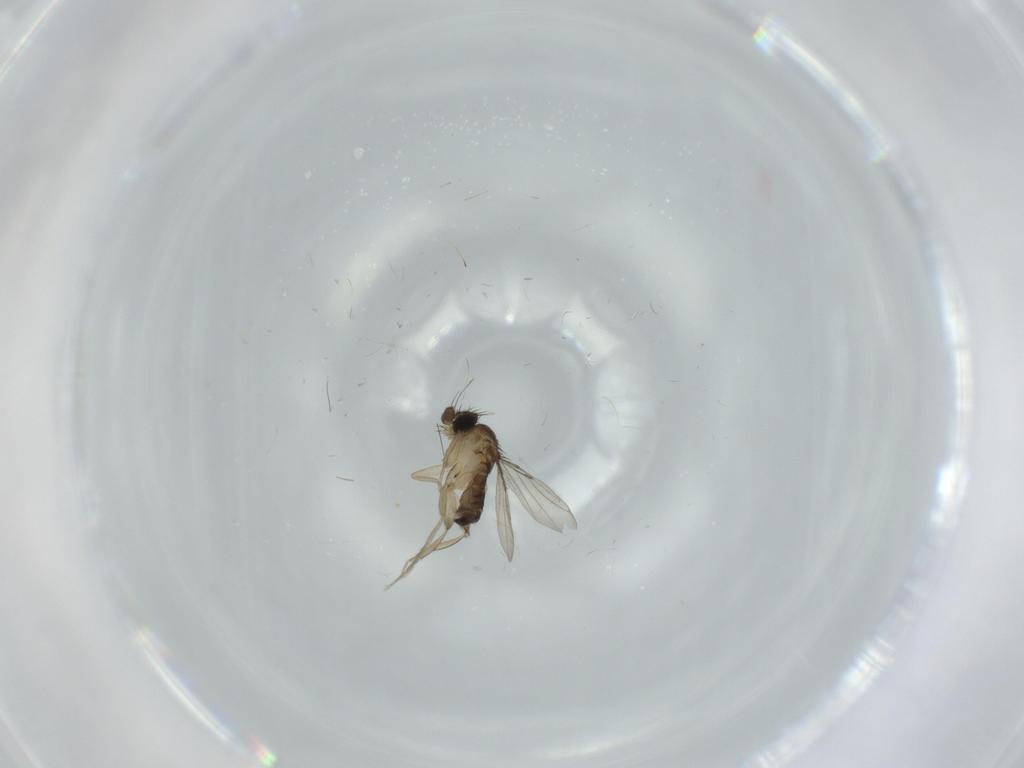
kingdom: Animalia
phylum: Arthropoda
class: Insecta
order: Diptera
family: Phoridae
